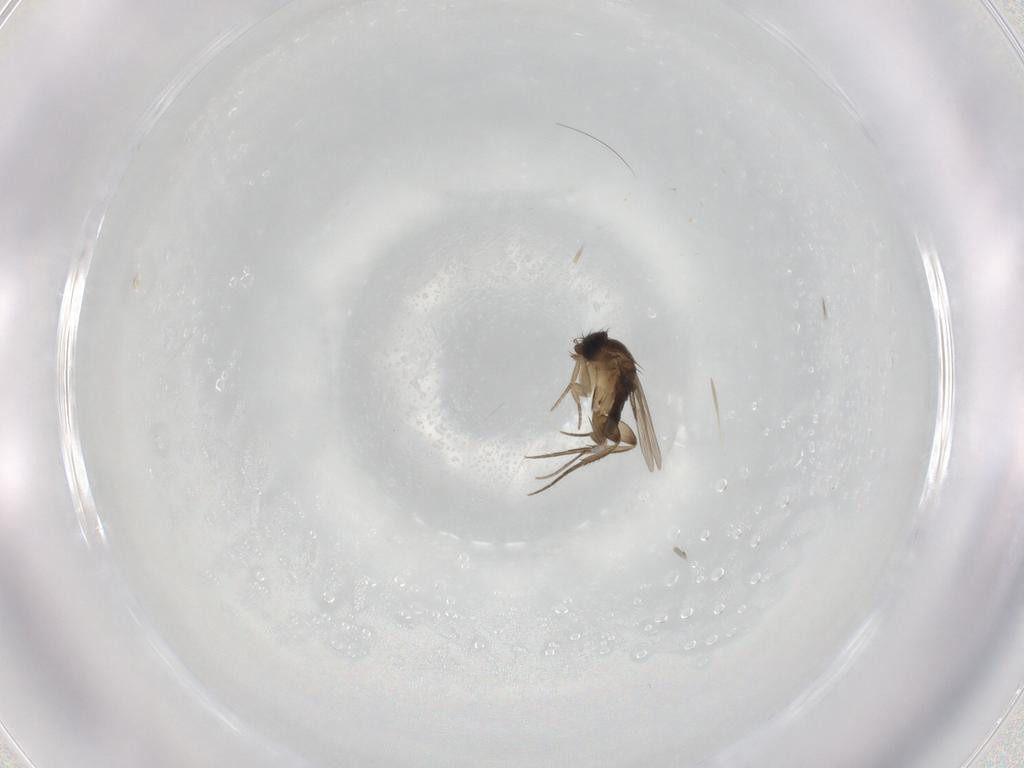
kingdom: Animalia
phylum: Arthropoda
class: Insecta
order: Diptera
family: Phoridae
